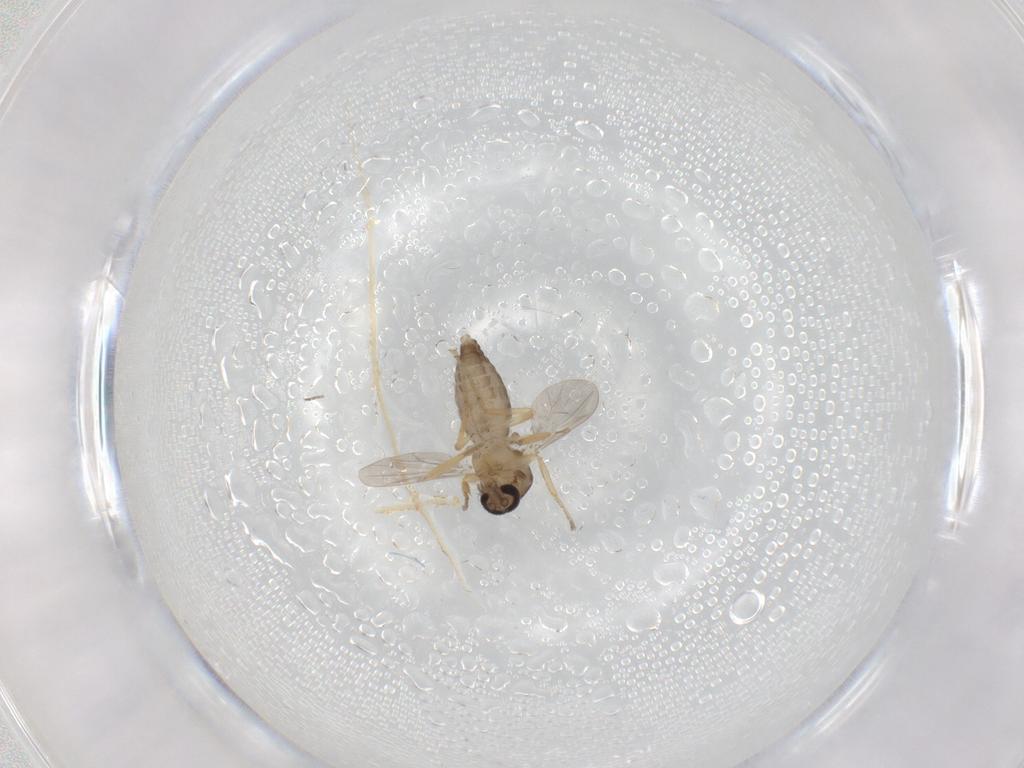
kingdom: Animalia
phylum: Arthropoda
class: Insecta
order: Diptera
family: Ceratopogonidae
